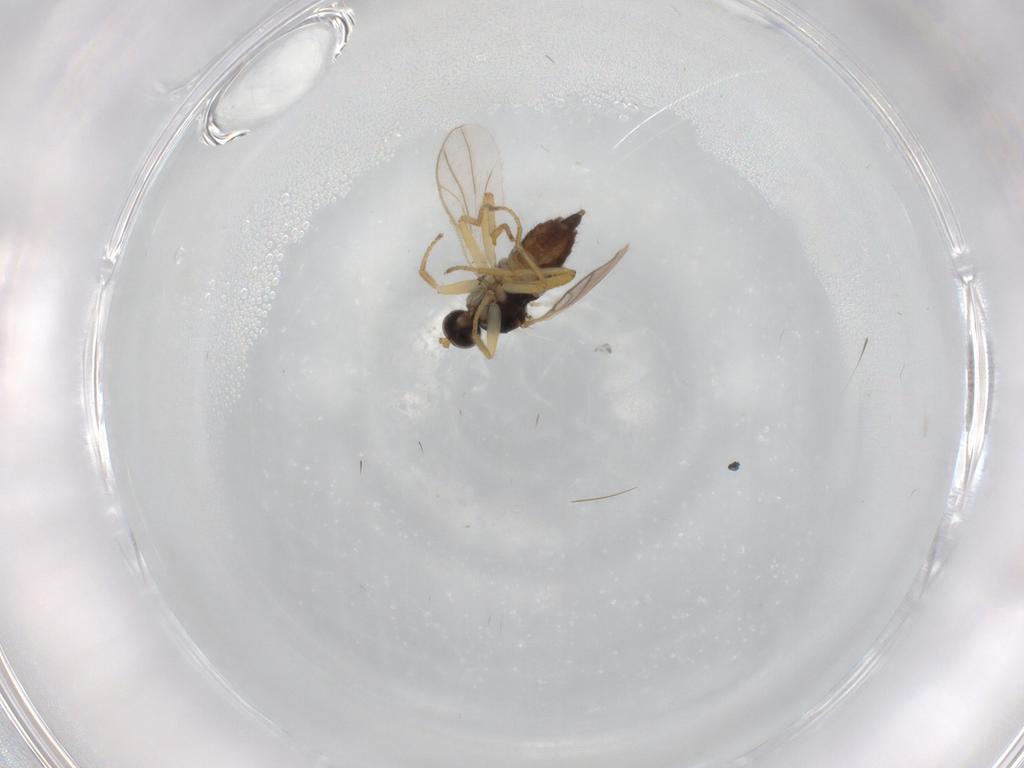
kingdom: Animalia
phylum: Arthropoda
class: Insecta
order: Diptera
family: Hybotidae
